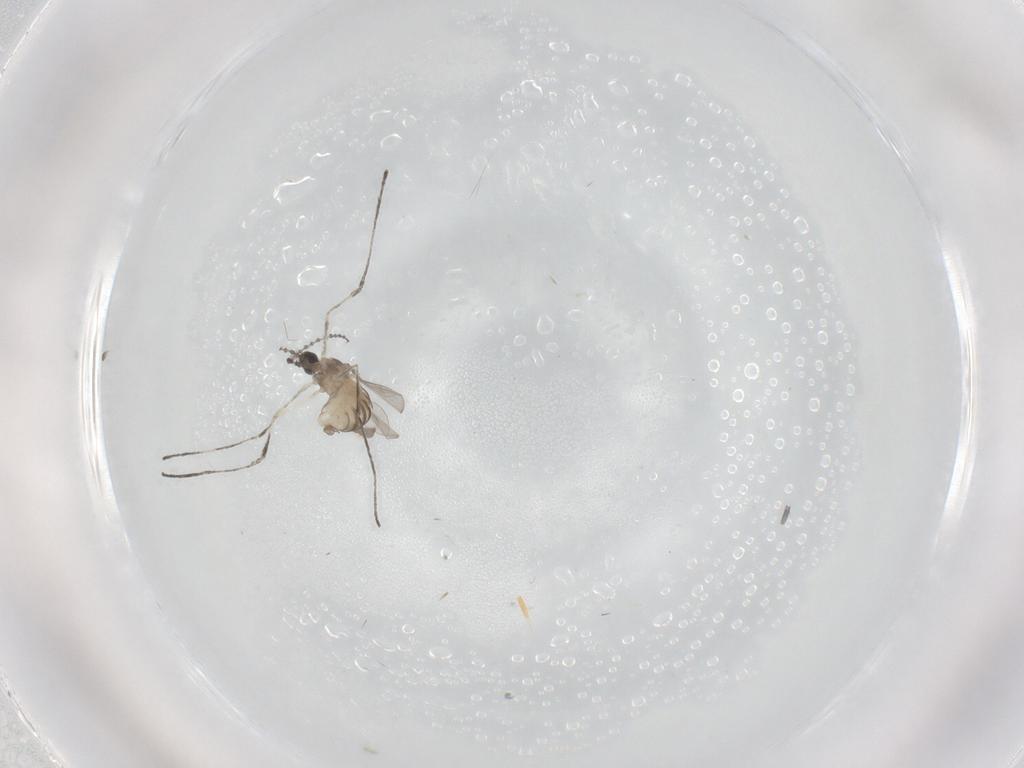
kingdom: Animalia
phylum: Arthropoda
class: Insecta
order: Diptera
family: Cecidomyiidae
